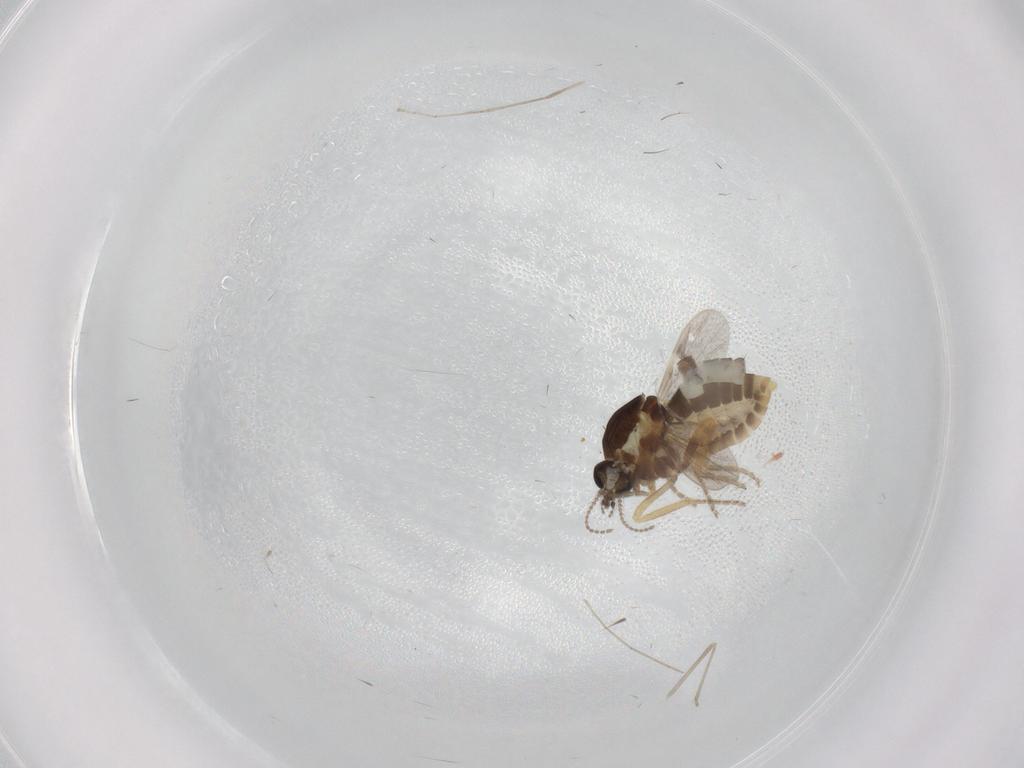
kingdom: Animalia
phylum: Arthropoda
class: Insecta
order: Diptera
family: Ceratopogonidae
